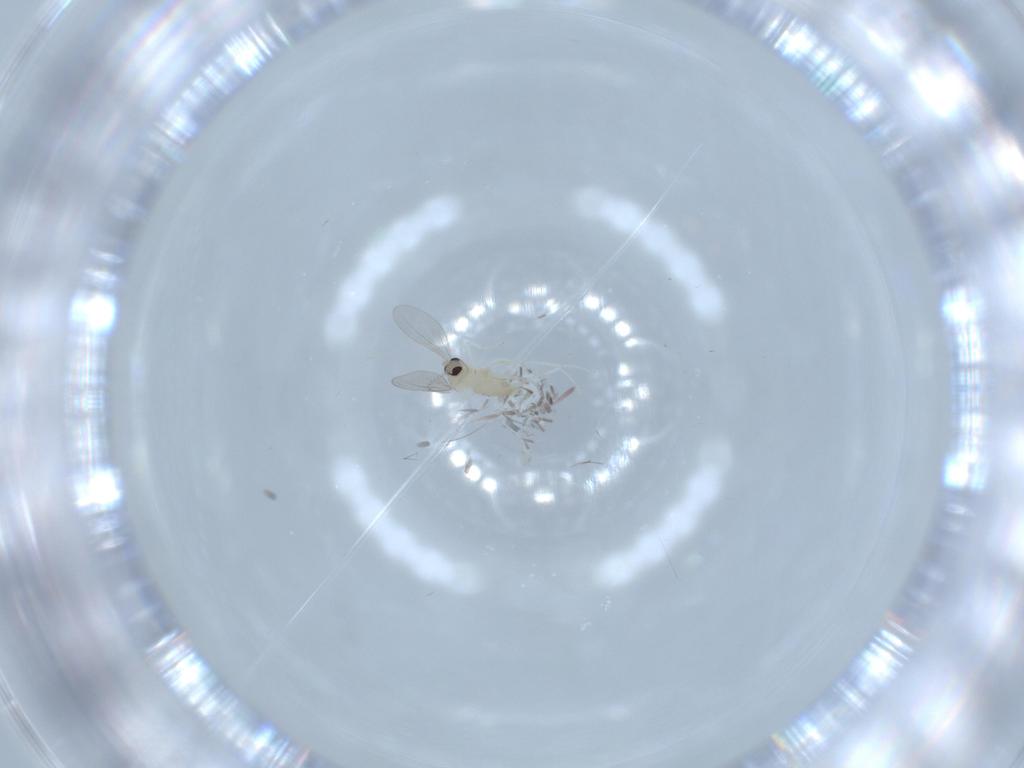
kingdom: Animalia
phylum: Arthropoda
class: Insecta
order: Diptera
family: Cecidomyiidae
